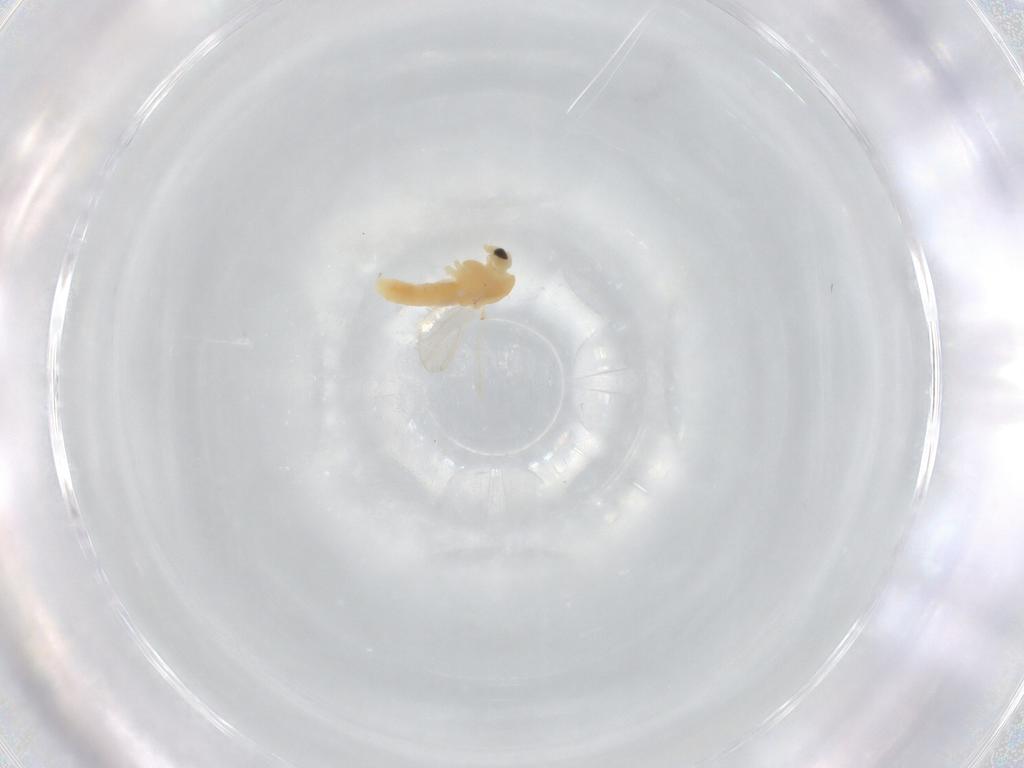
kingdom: Animalia
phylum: Arthropoda
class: Insecta
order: Diptera
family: Chironomidae
